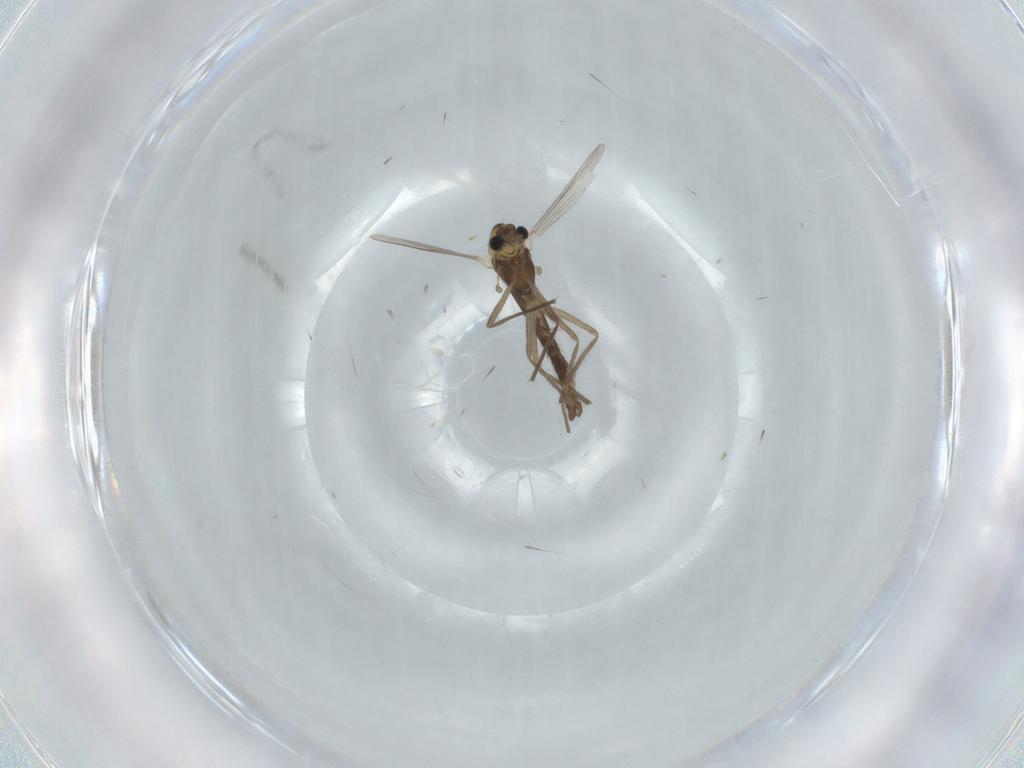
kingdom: Animalia
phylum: Arthropoda
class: Insecta
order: Diptera
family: Chironomidae
